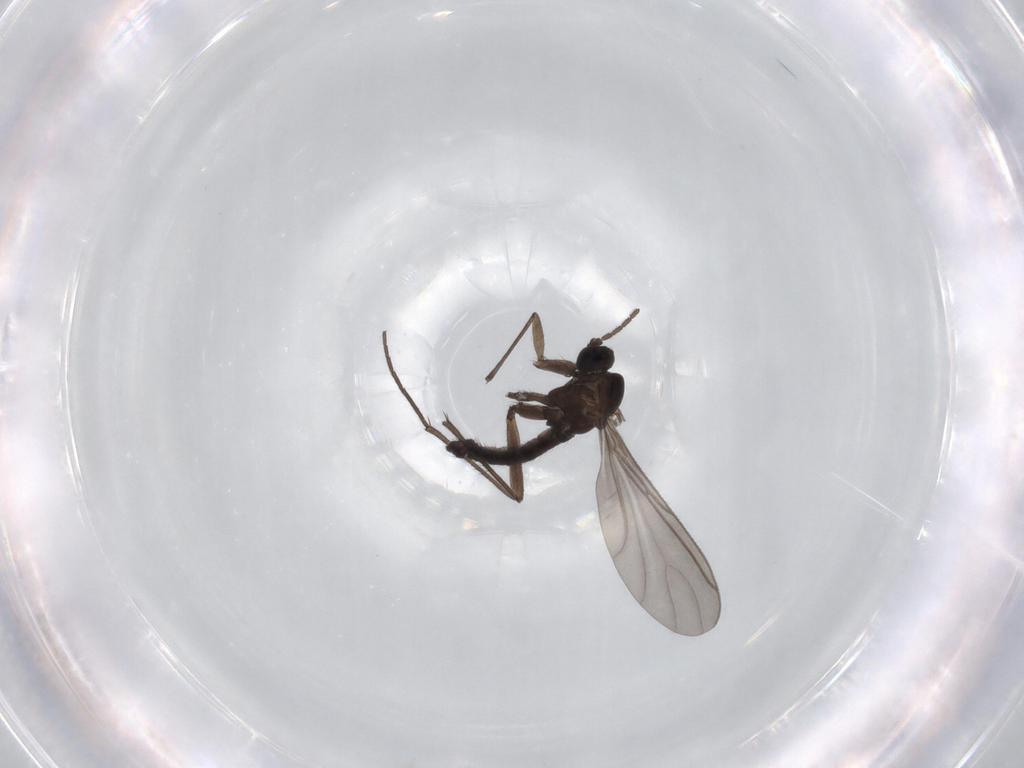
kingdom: Animalia
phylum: Arthropoda
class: Insecta
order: Diptera
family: Sciaridae
